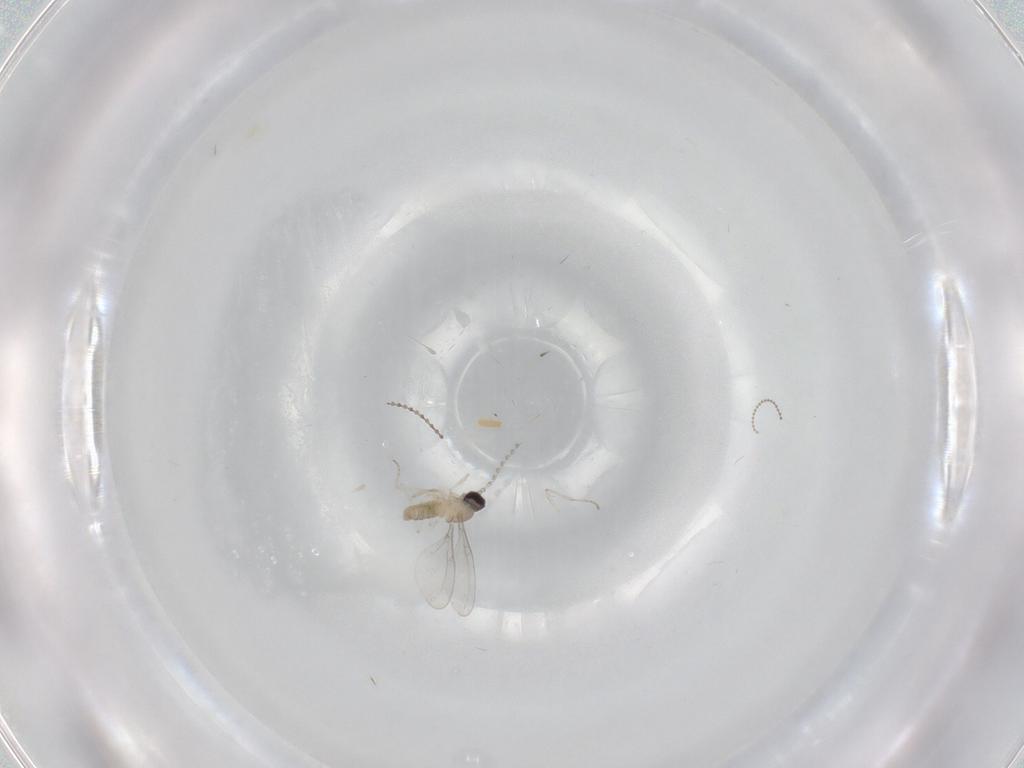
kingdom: Animalia
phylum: Arthropoda
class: Insecta
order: Diptera
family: Cecidomyiidae
